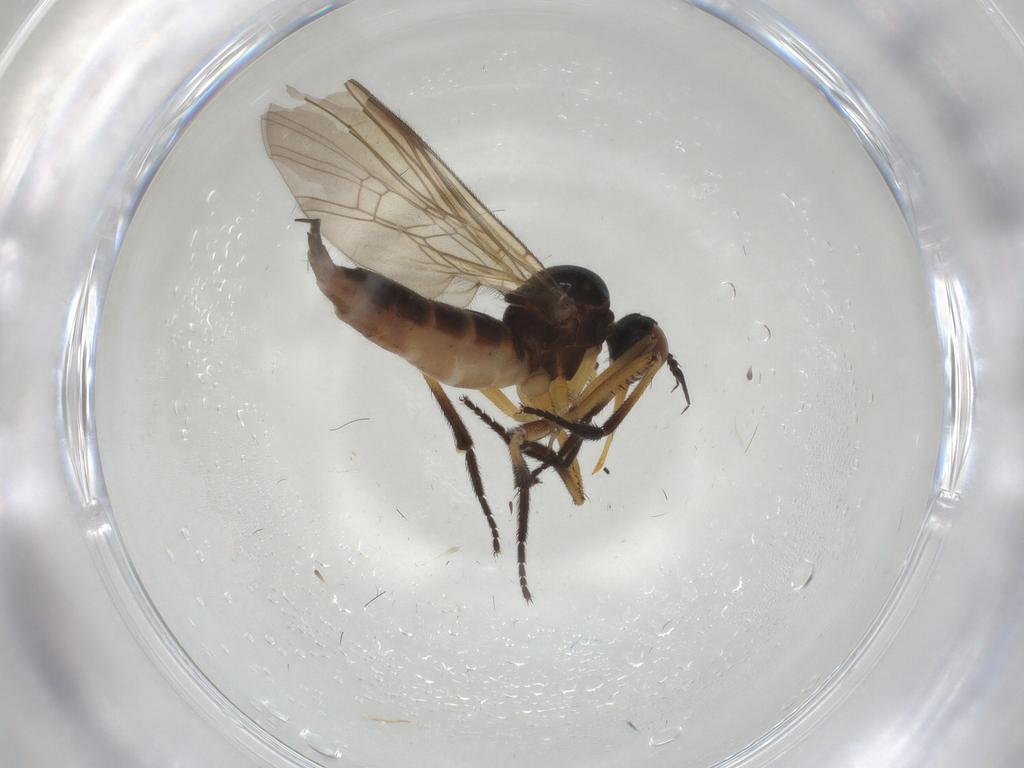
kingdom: Animalia
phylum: Arthropoda
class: Insecta
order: Diptera
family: Empididae
